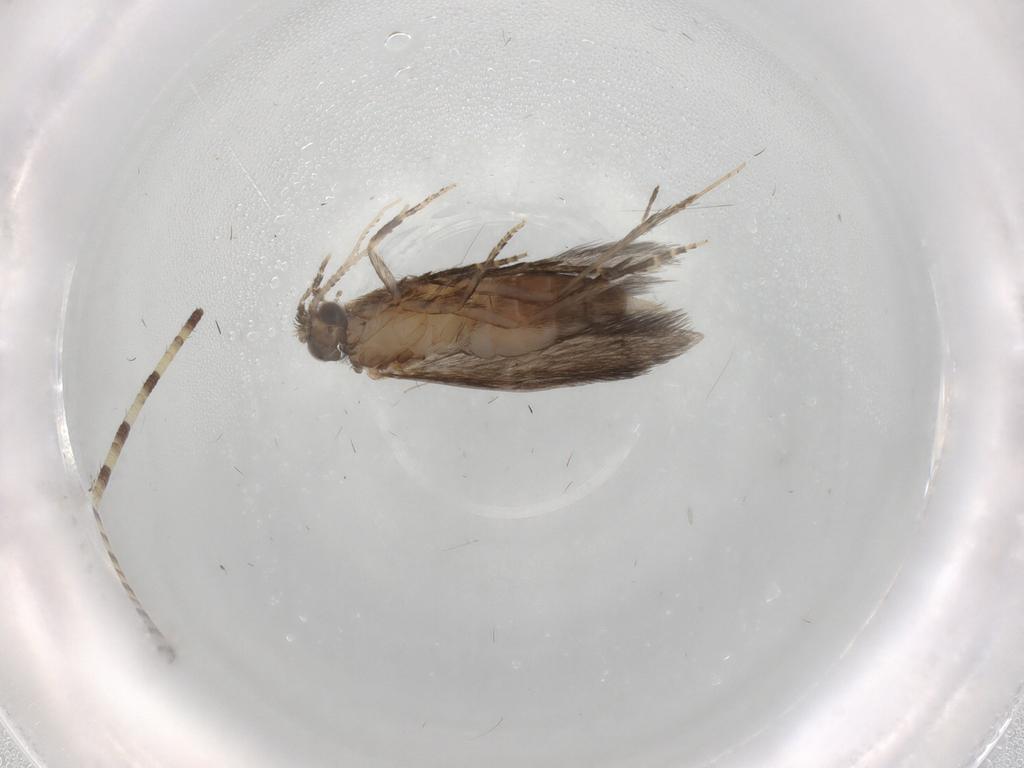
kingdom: Animalia
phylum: Arthropoda
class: Insecta
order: Trichoptera
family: Hydroptilidae
